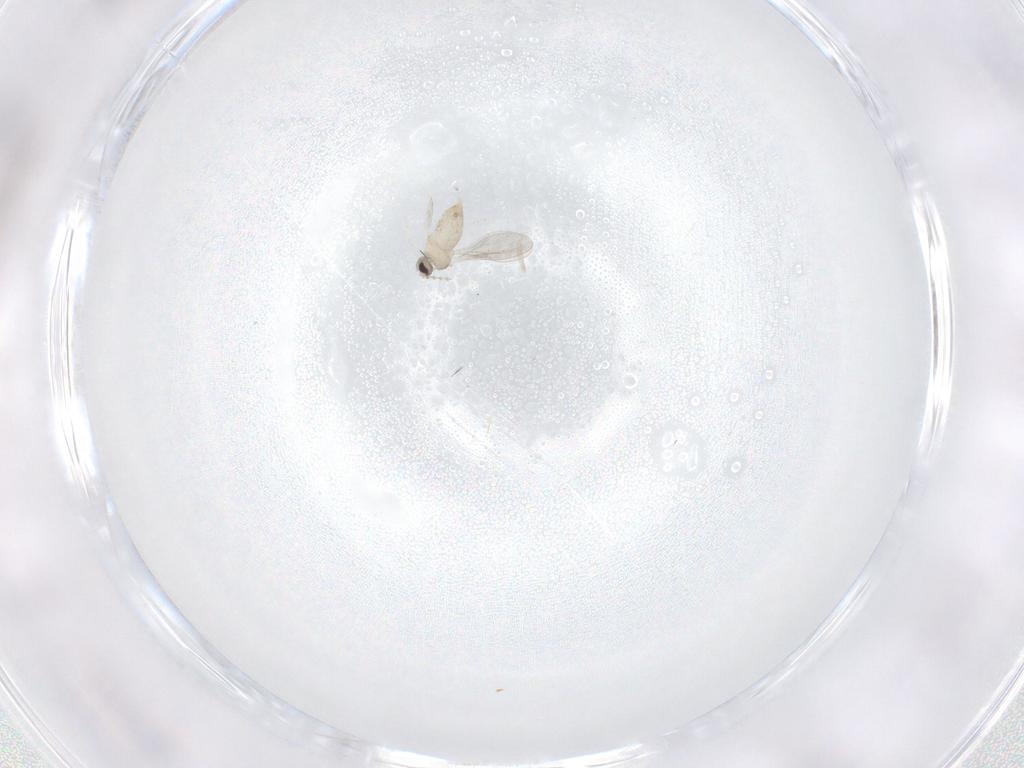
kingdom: Animalia
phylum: Arthropoda
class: Insecta
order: Diptera
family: Cecidomyiidae
